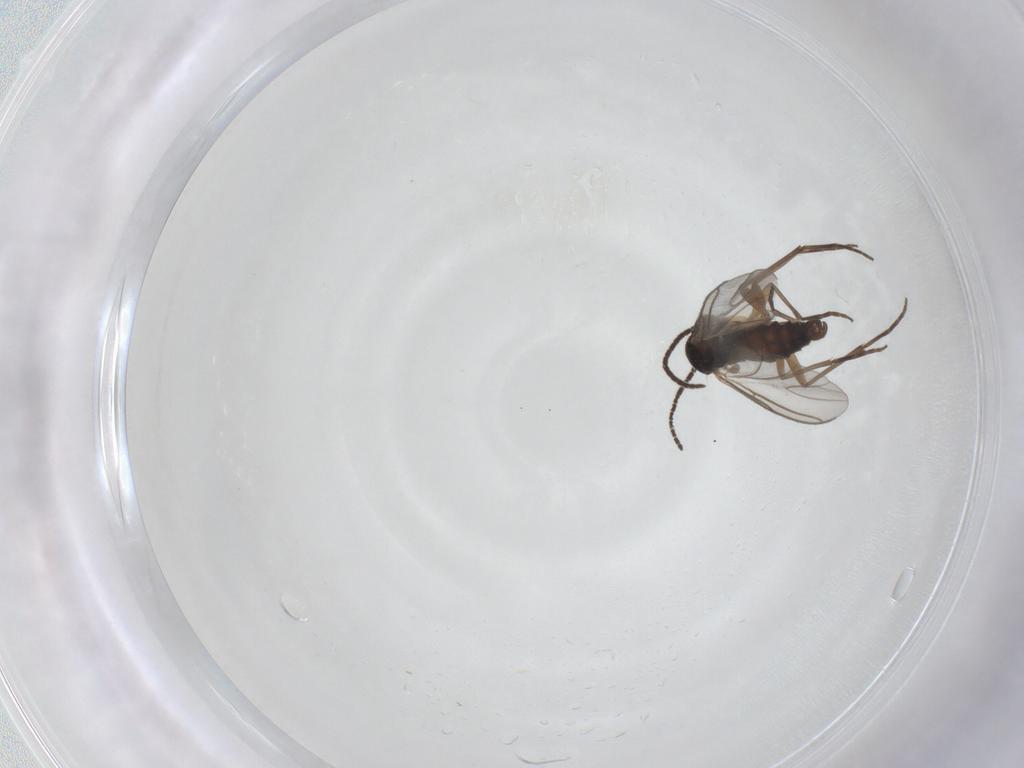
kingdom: Animalia
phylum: Arthropoda
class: Insecta
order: Diptera
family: Sciaridae
